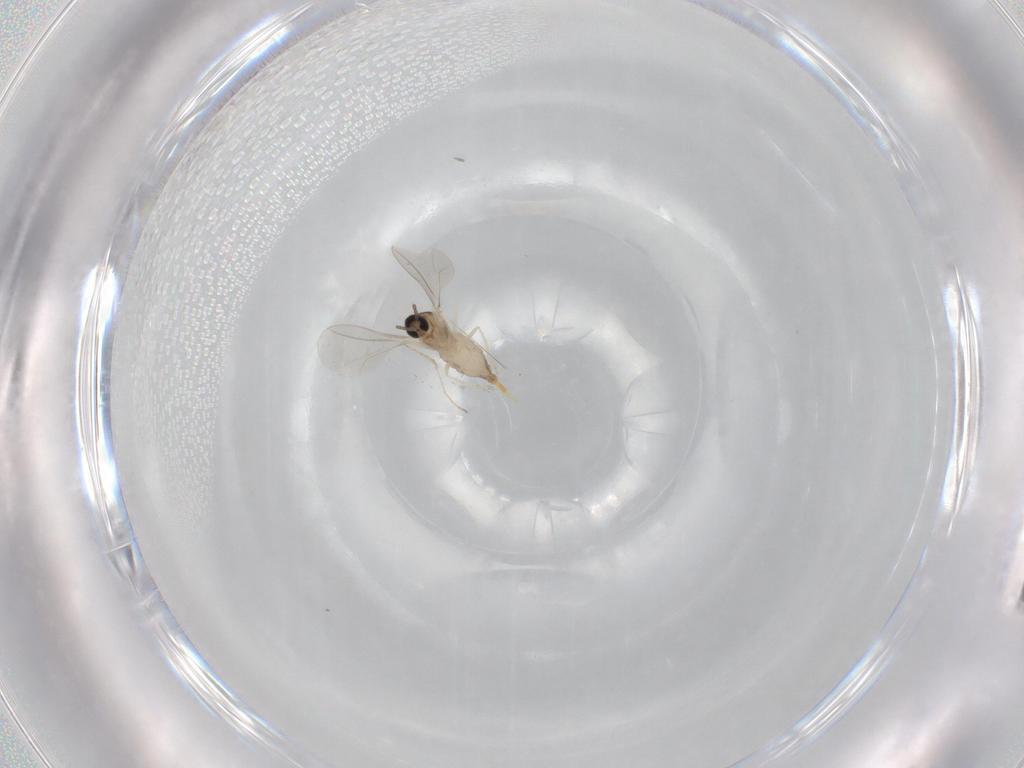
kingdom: Animalia
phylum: Arthropoda
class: Insecta
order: Diptera
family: Cecidomyiidae
